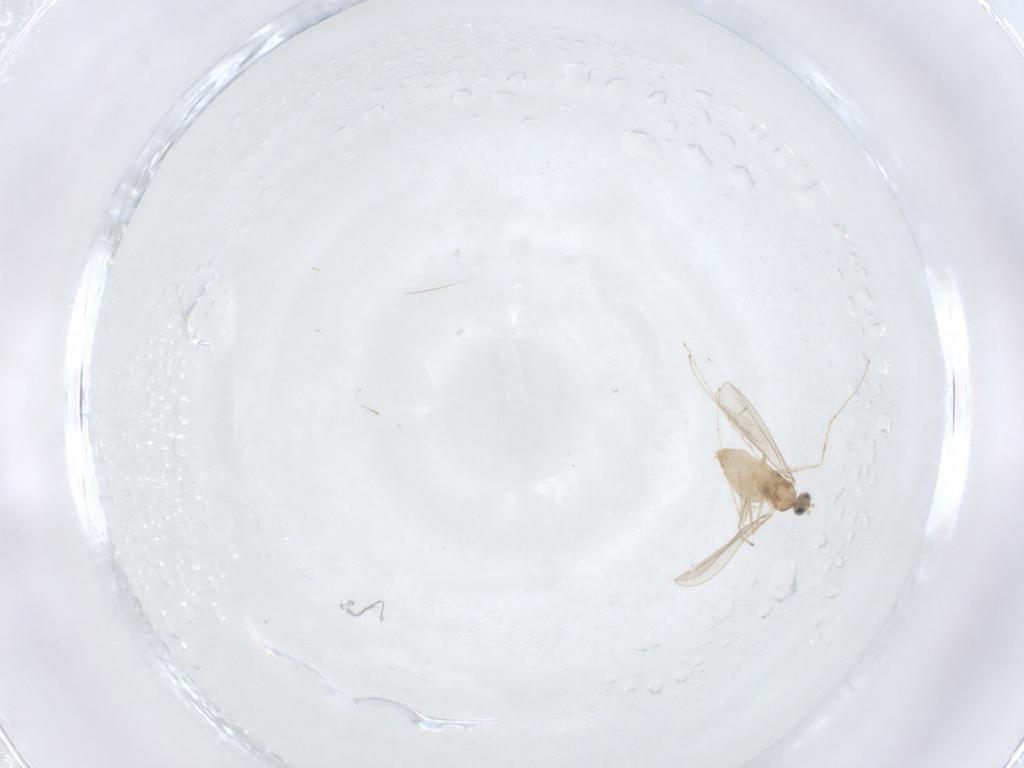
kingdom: Animalia
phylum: Arthropoda
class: Insecta
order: Diptera
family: Cecidomyiidae
